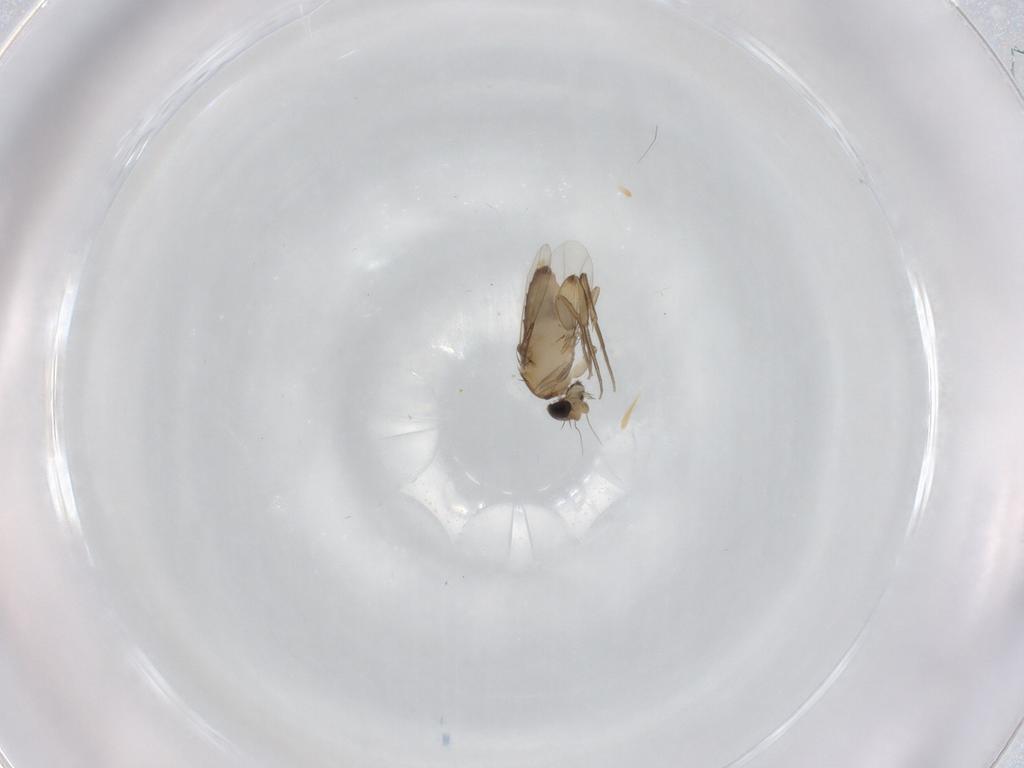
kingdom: Animalia
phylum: Arthropoda
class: Insecta
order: Diptera
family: Phoridae
